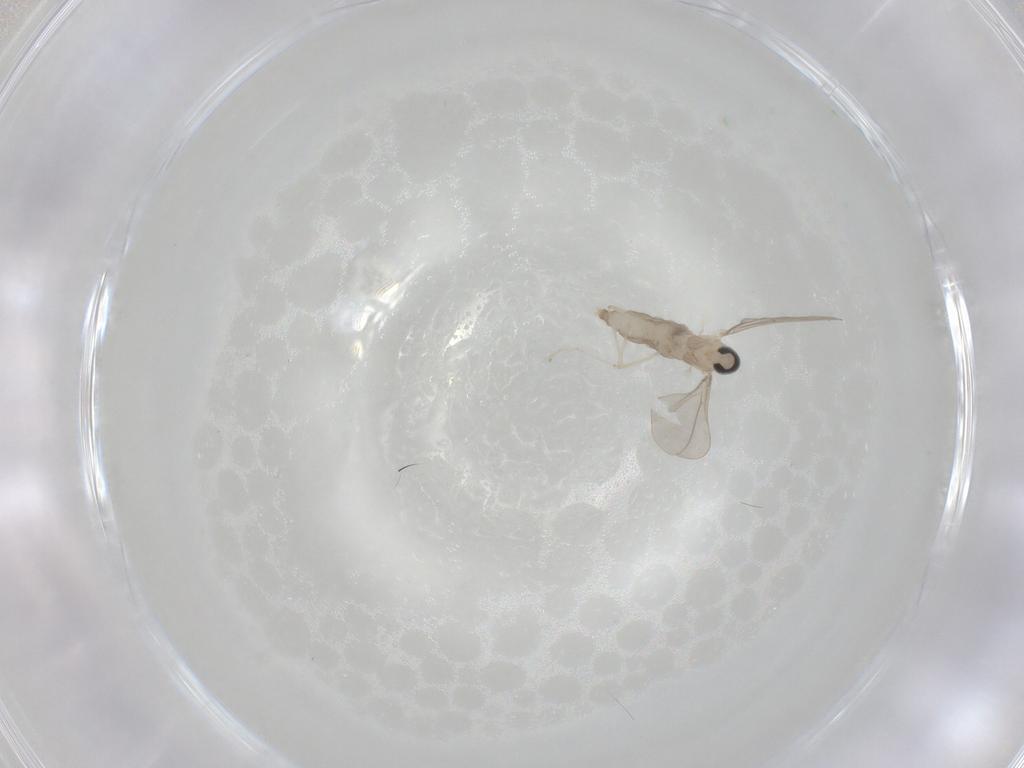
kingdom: Animalia
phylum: Arthropoda
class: Insecta
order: Diptera
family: Cecidomyiidae
